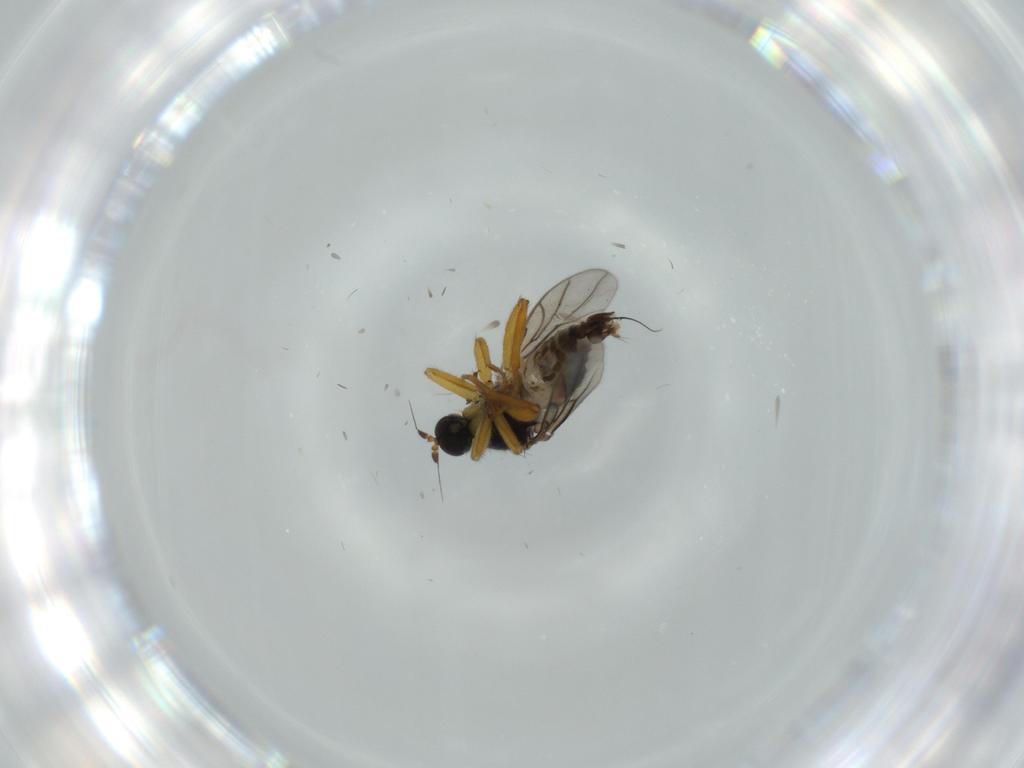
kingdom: Animalia
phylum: Arthropoda
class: Insecta
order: Diptera
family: Hybotidae
